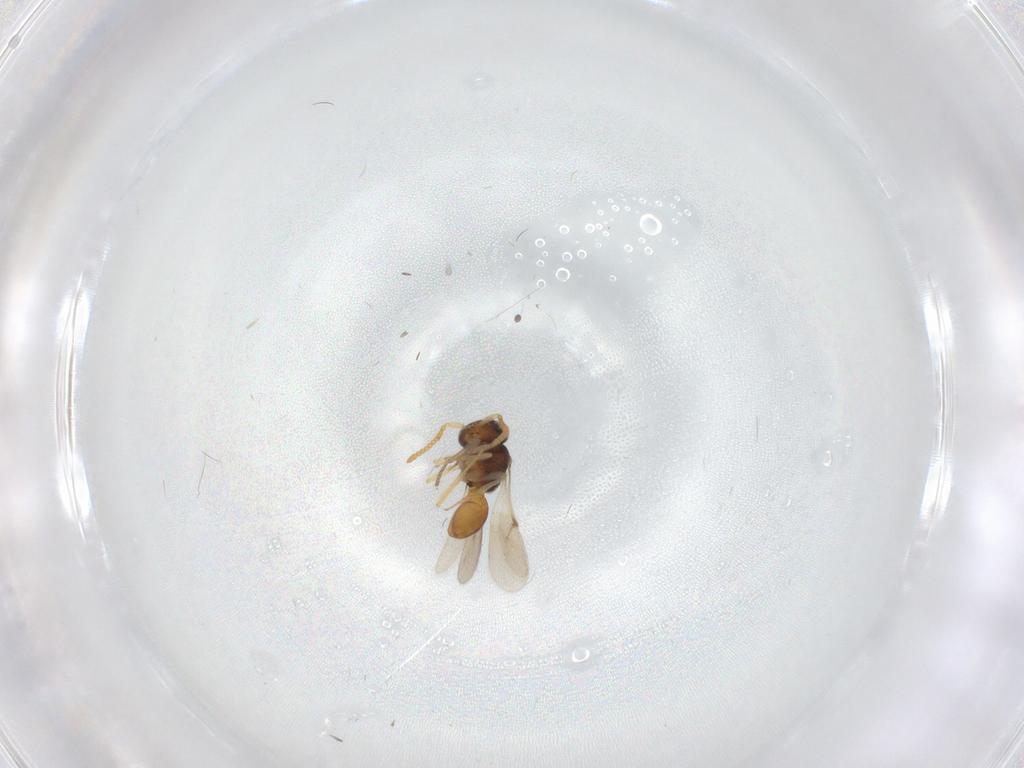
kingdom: Animalia
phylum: Arthropoda
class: Insecta
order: Hymenoptera
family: Scelionidae
